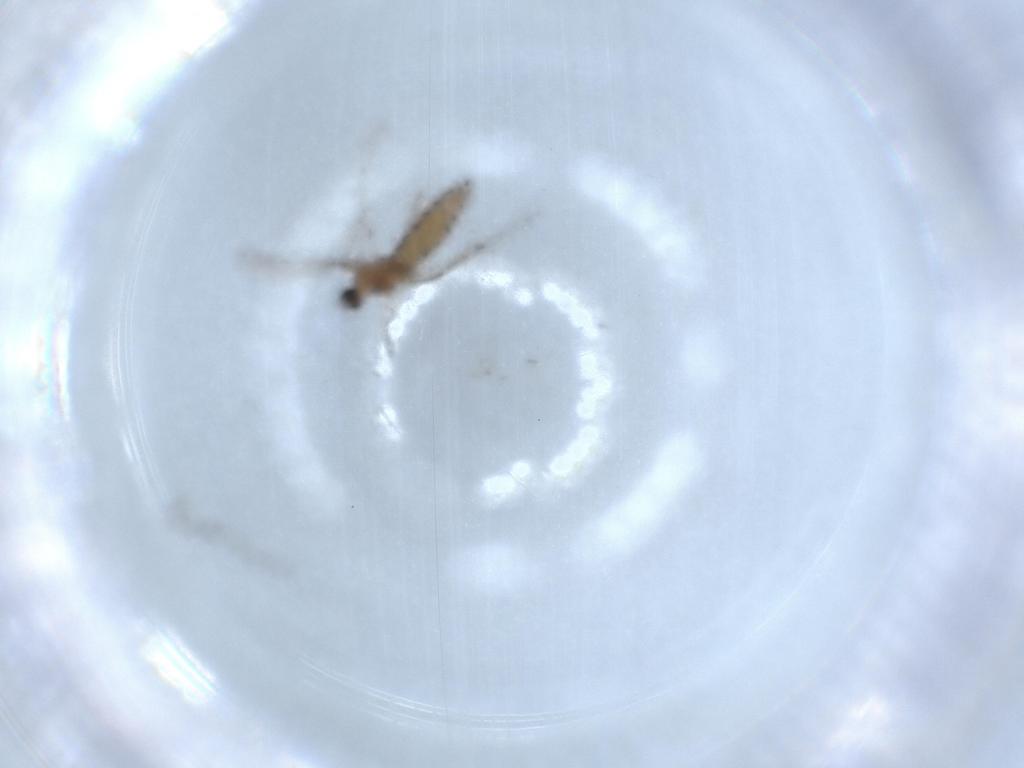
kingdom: Animalia
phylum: Arthropoda
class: Insecta
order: Diptera
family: Cecidomyiidae
